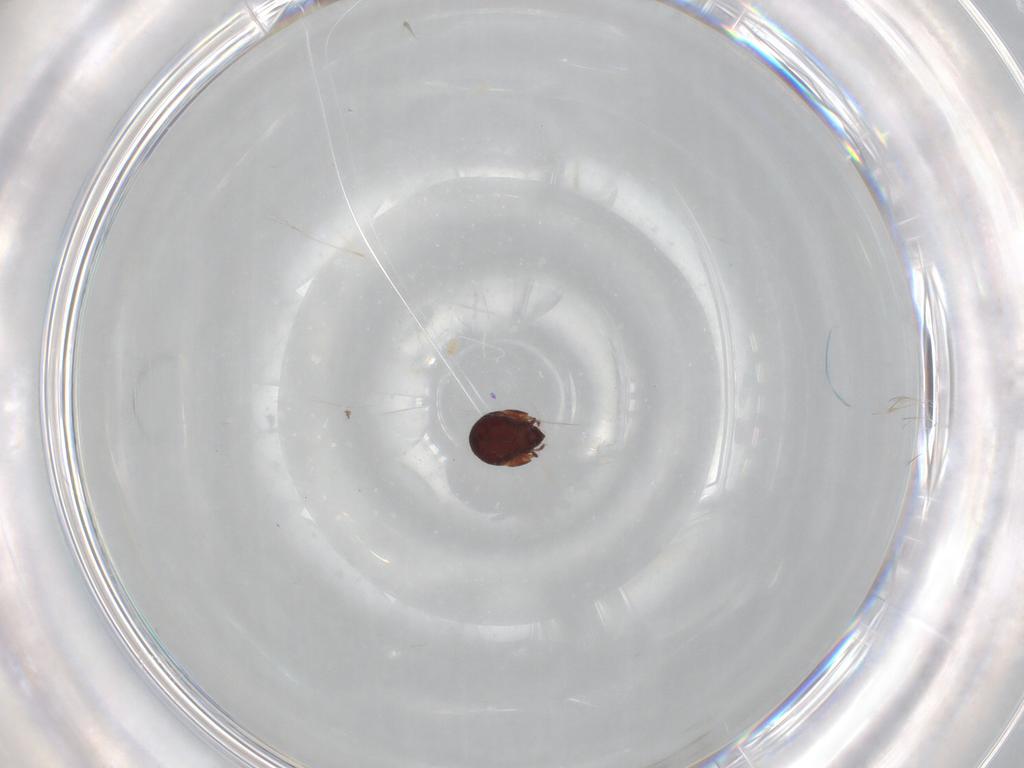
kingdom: Animalia
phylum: Arthropoda
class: Arachnida
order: Sarcoptiformes
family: Humerobatidae
